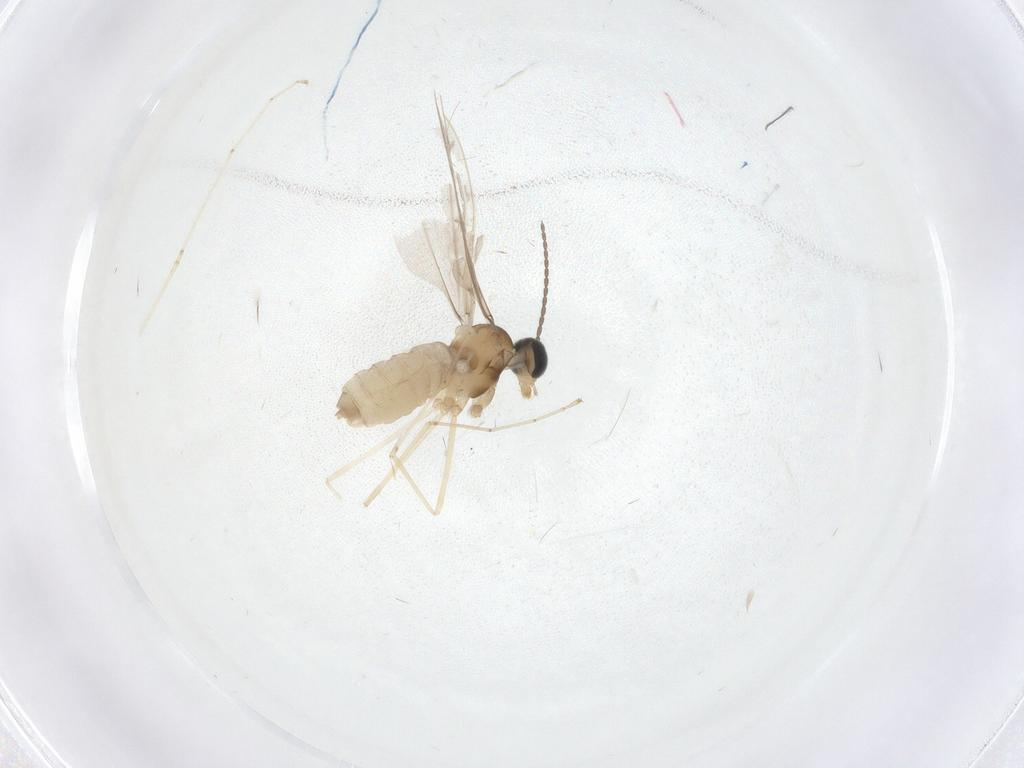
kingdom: Animalia
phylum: Arthropoda
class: Insecta
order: Diptera
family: Cecidomyiidae
